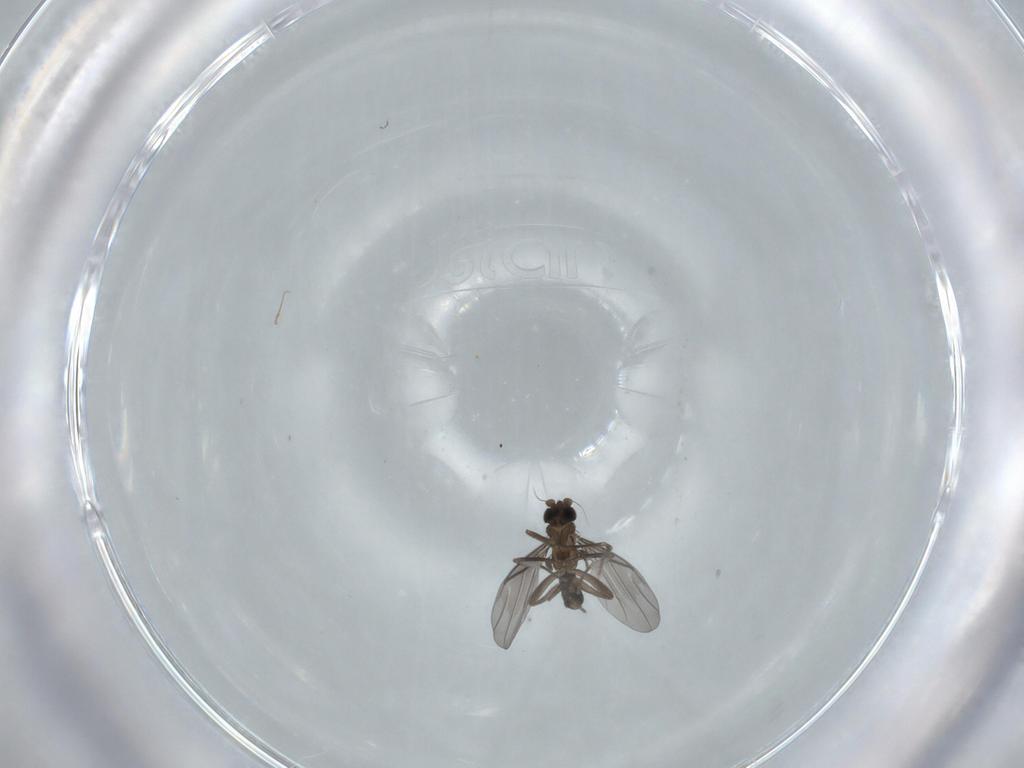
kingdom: Animalia
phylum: Arthropoda
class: Insecta
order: Diptera
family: Phoridae
